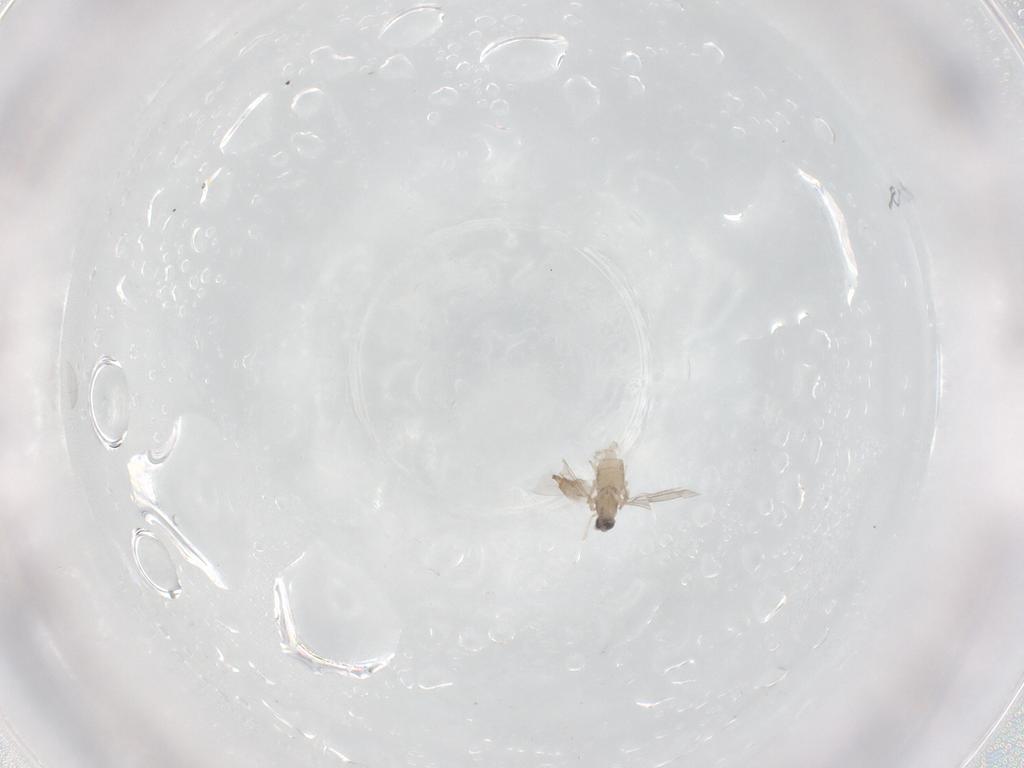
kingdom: Animalia
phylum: Arthropoda
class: Insecta
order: Diptera
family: Cecidomyiidae
